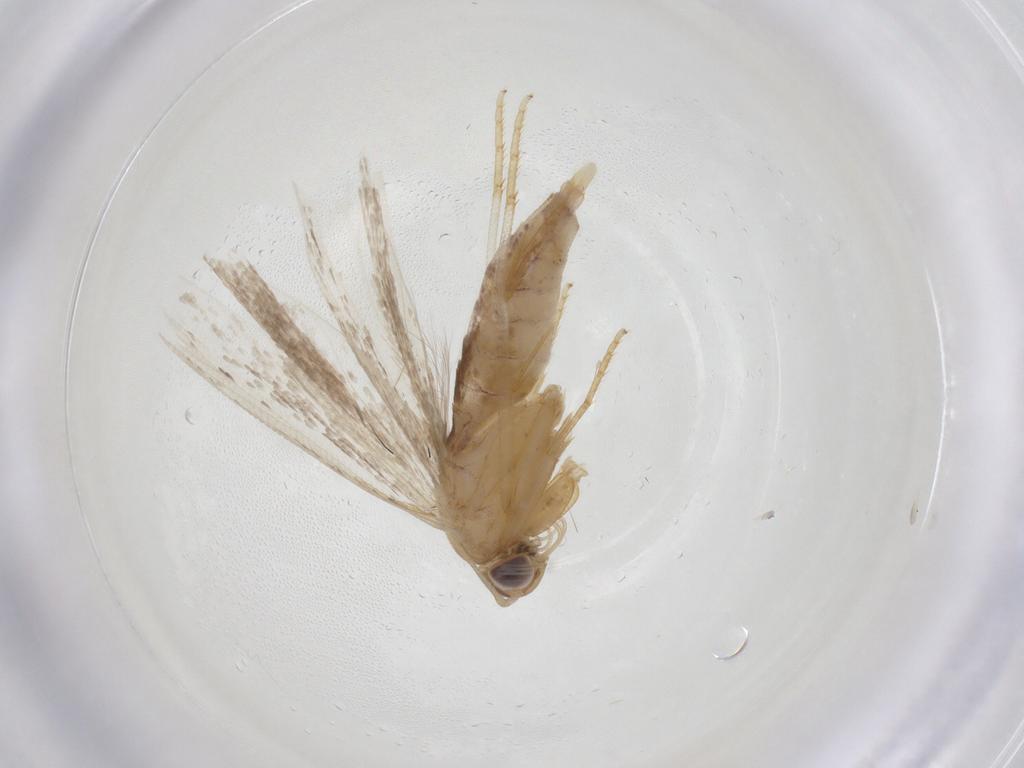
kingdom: Animalia
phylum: Arthropoda
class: Insecta
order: Lepidoptera
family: Gelechiidae
